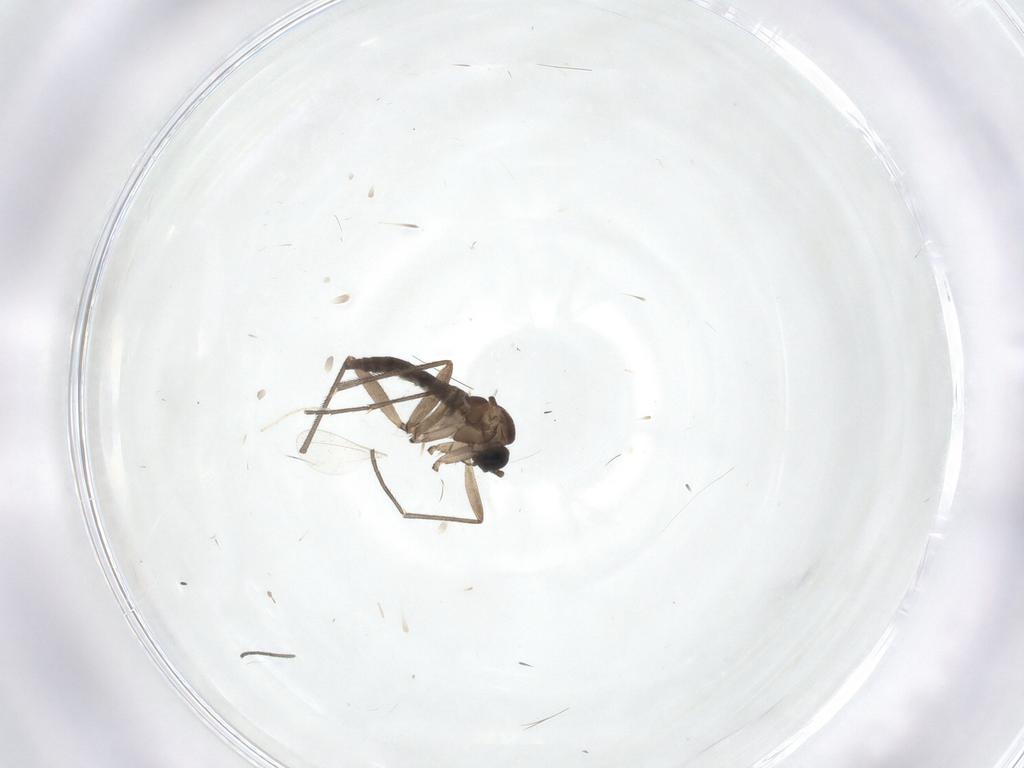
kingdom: Animalia
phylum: Arthropoda
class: Insecta
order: Diptera
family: Chironomidae
